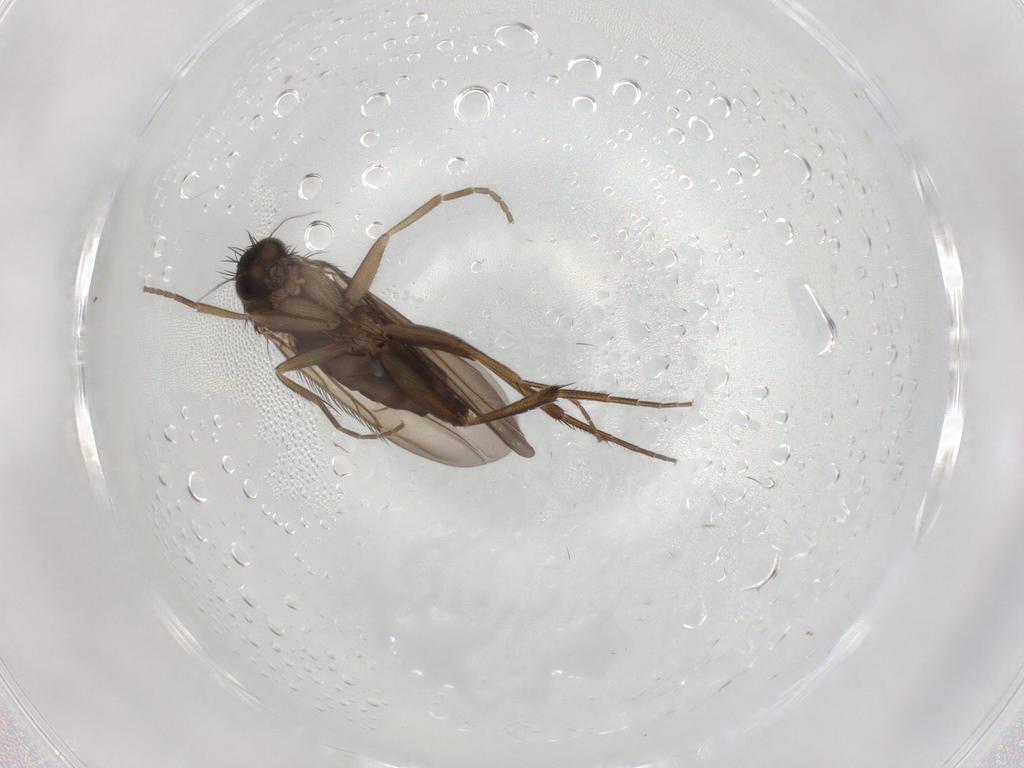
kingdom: Animalia
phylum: Arthropoda
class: Insecta
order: Diptera
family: Phoridae
